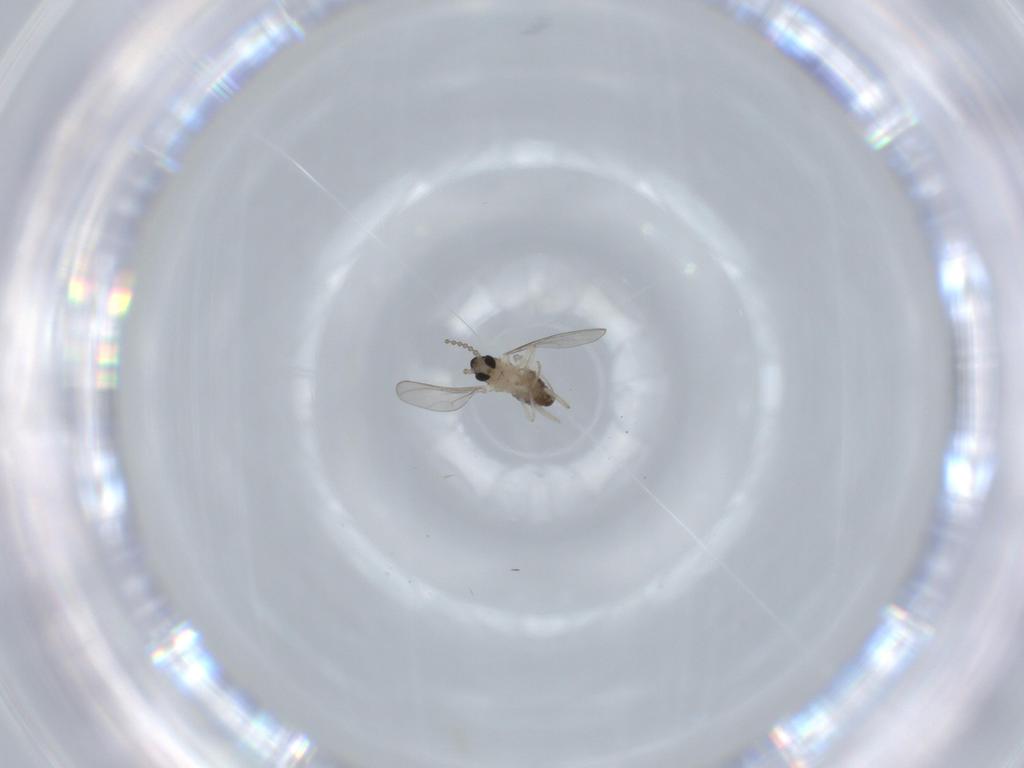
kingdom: Animalia
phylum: Arthropoda
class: Insecta
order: Diptera
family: Cecidomyiidae
